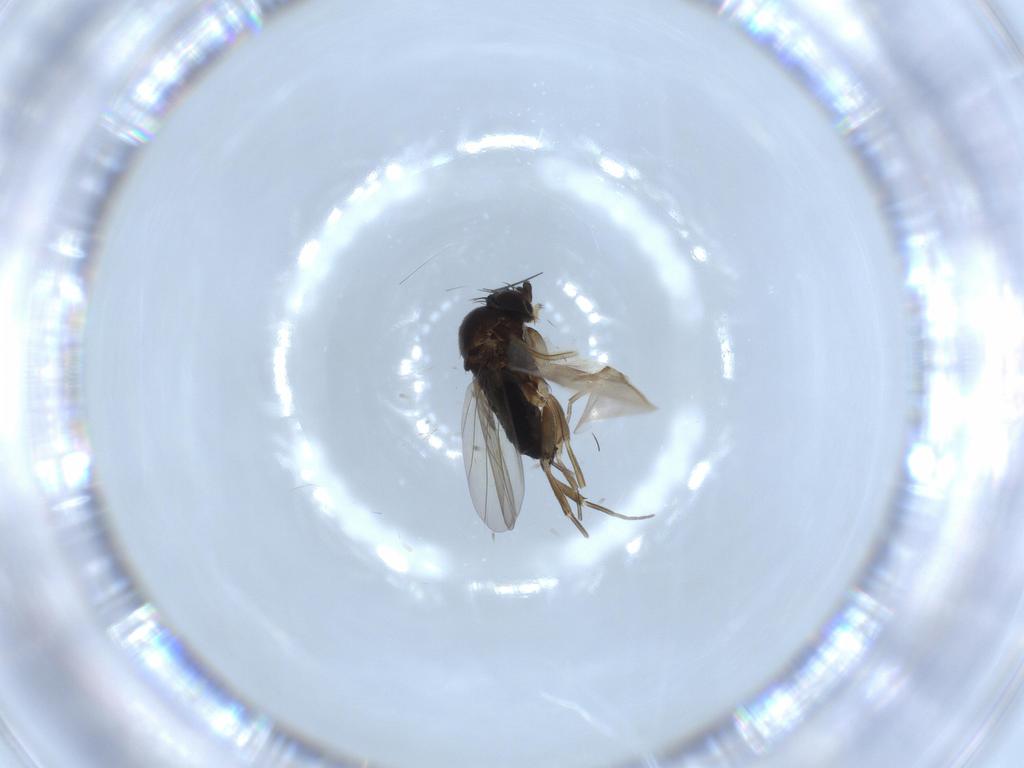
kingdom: Animalia
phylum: Arthropoda
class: Insecta
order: Diptera
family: Phoridae
